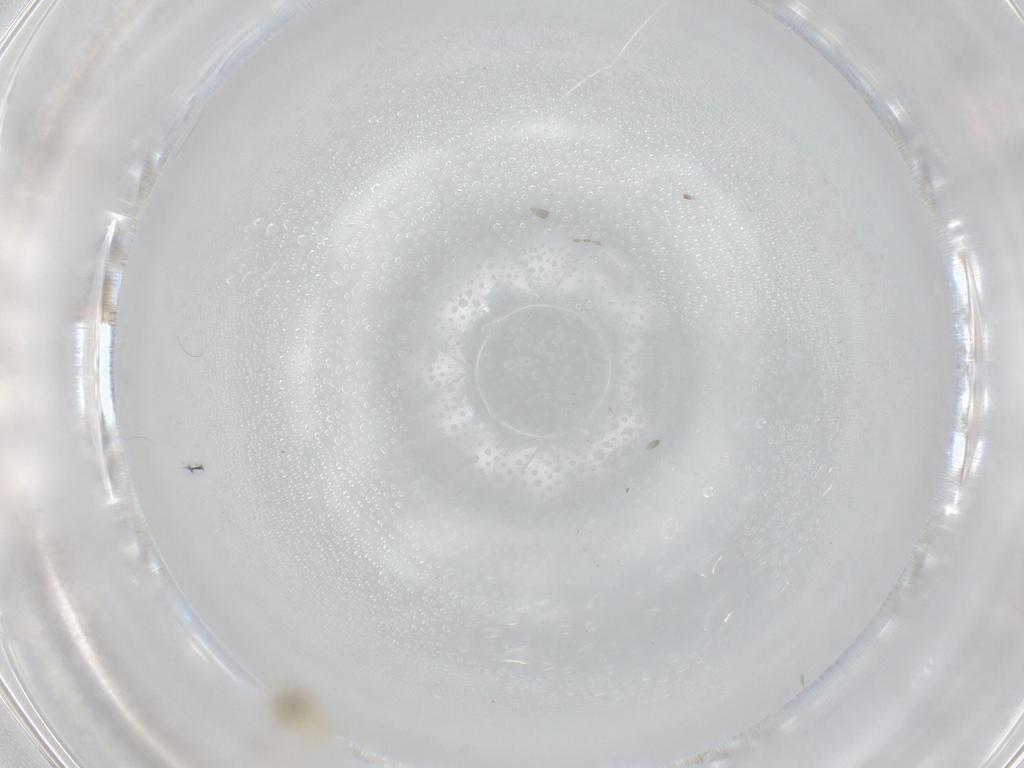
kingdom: Animalia
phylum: Arthropoda
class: Insecta
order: Hemiptera
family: Aleyrodidae
